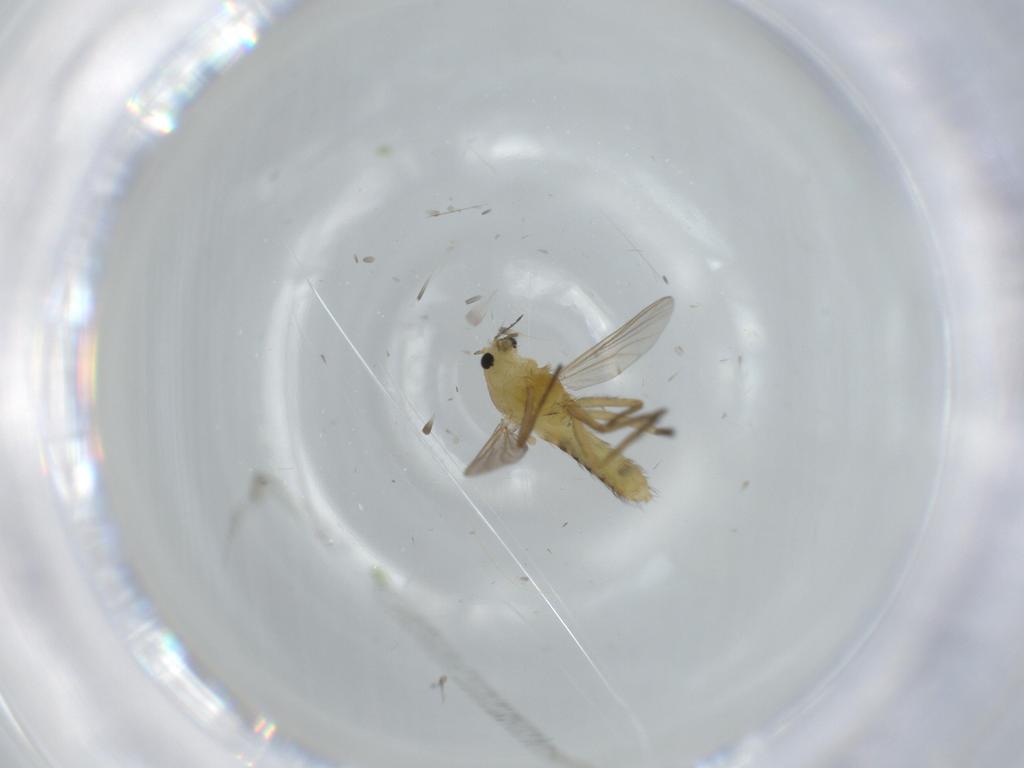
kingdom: Animalia
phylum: Arthropoda
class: Insecta
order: Diptera
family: Chironomidae
